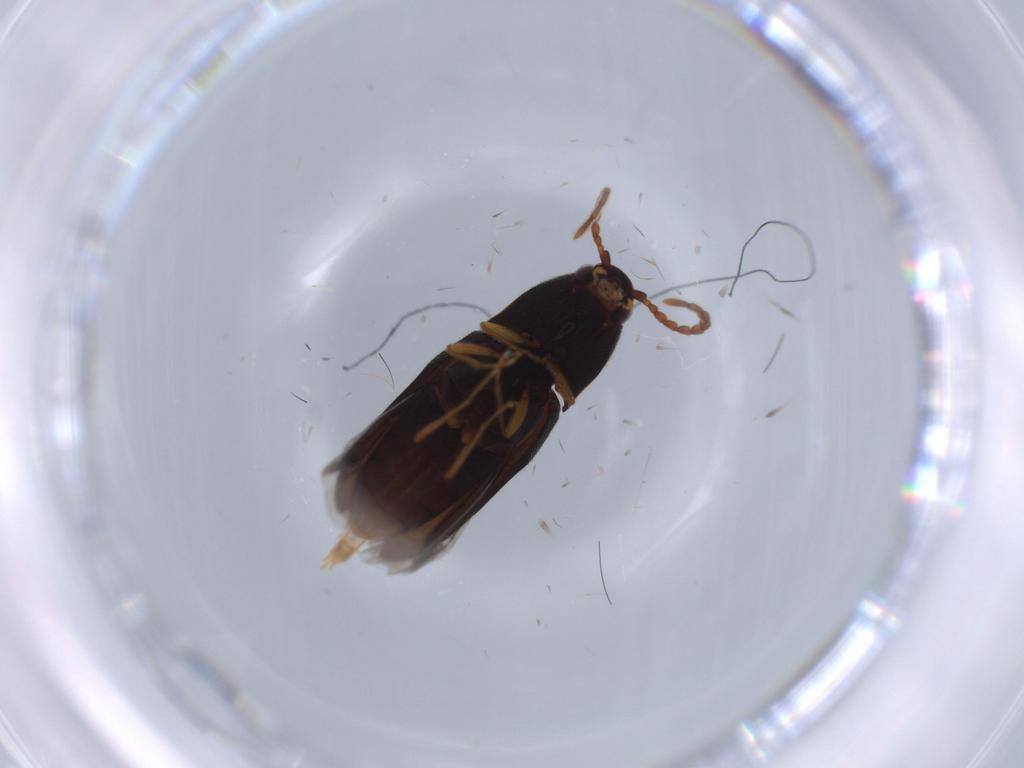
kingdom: Animalia
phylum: Arthropoda
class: Insecta
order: Coleoptera
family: Elateridae
